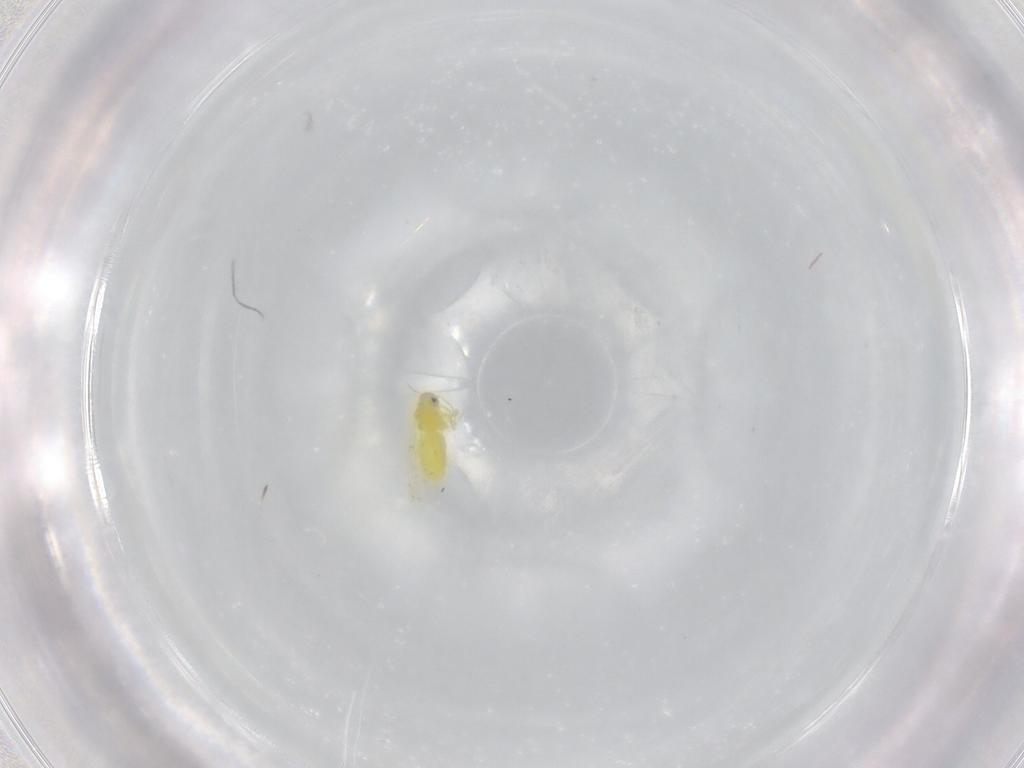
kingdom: Animalia
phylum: Arthropoda
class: Insecta
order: Hemiptera
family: Aleyrodidae
